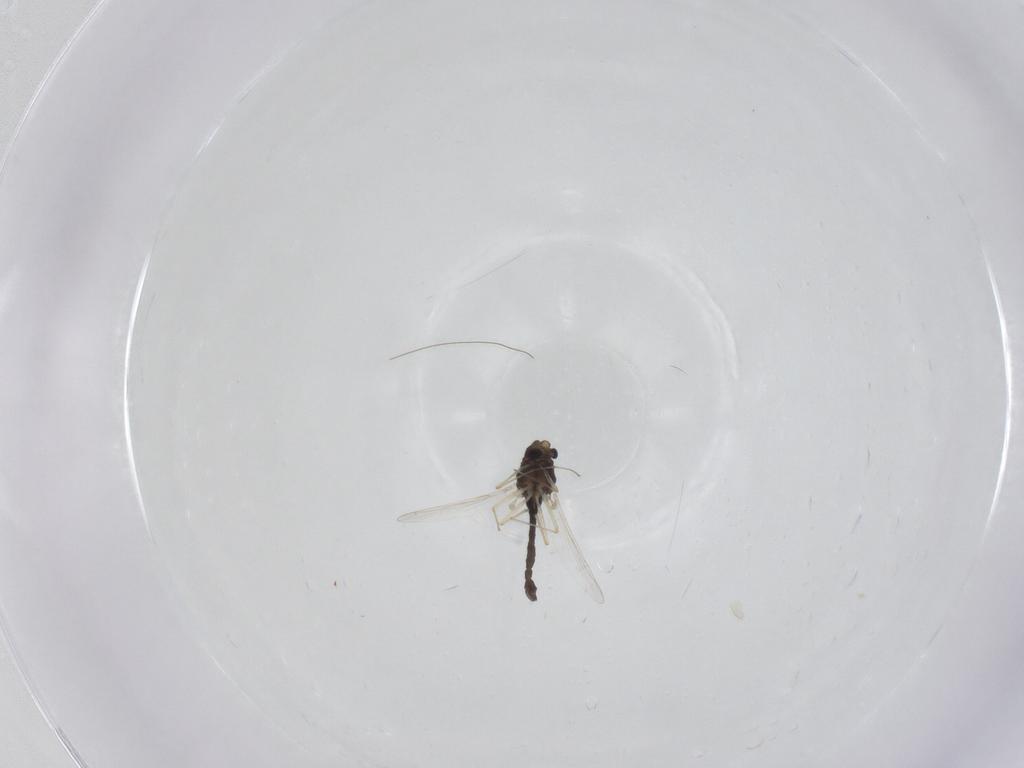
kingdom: Animalia
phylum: Arthropoda
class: Insecta
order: Diptera
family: Chironomidae
